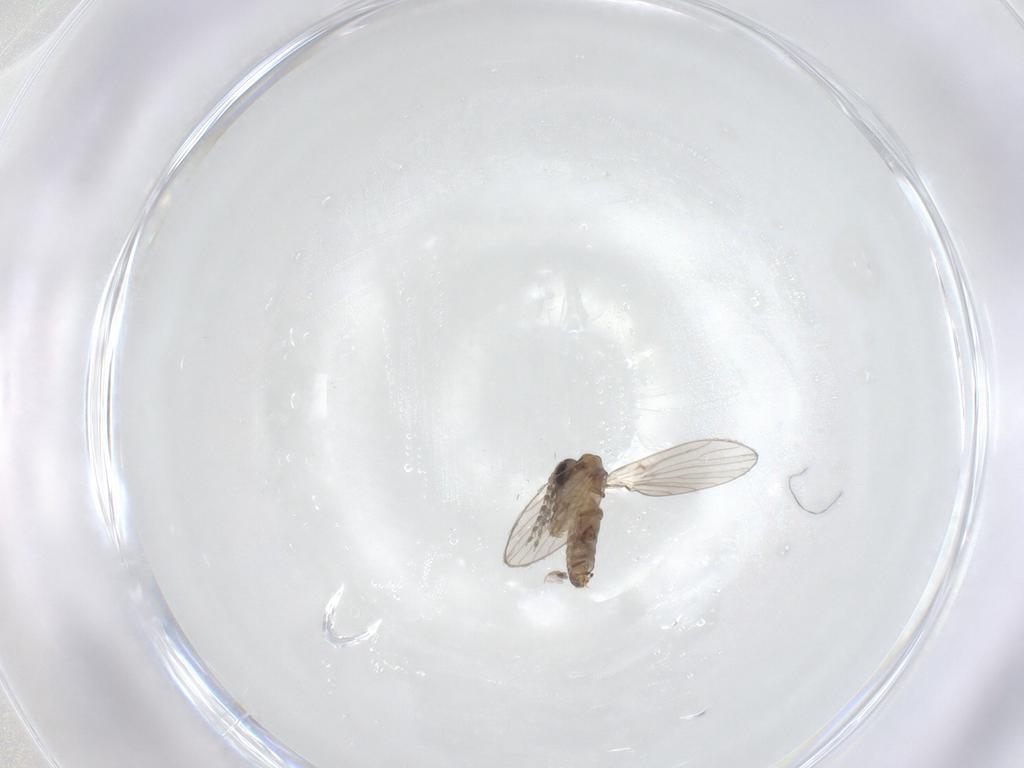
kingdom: Animalia
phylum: Arthropoda
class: Insecta
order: Diptera
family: Psychodidae
